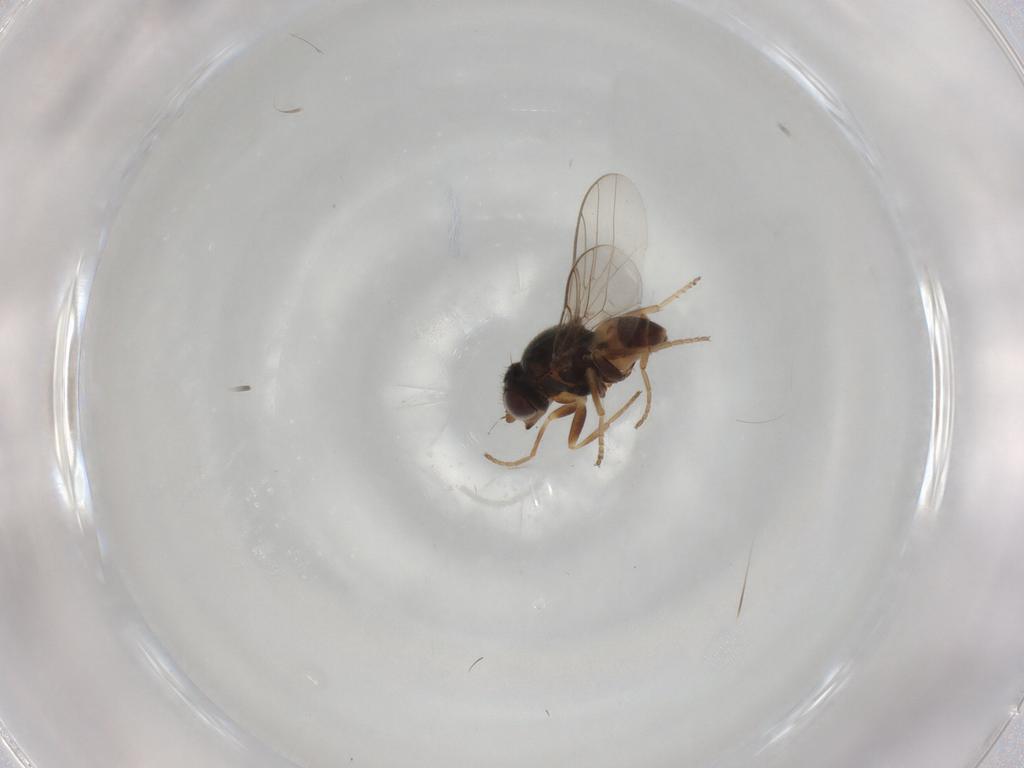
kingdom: Animalia
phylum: Arthropoda
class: Insecta
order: Diptera
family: Chloropidae
